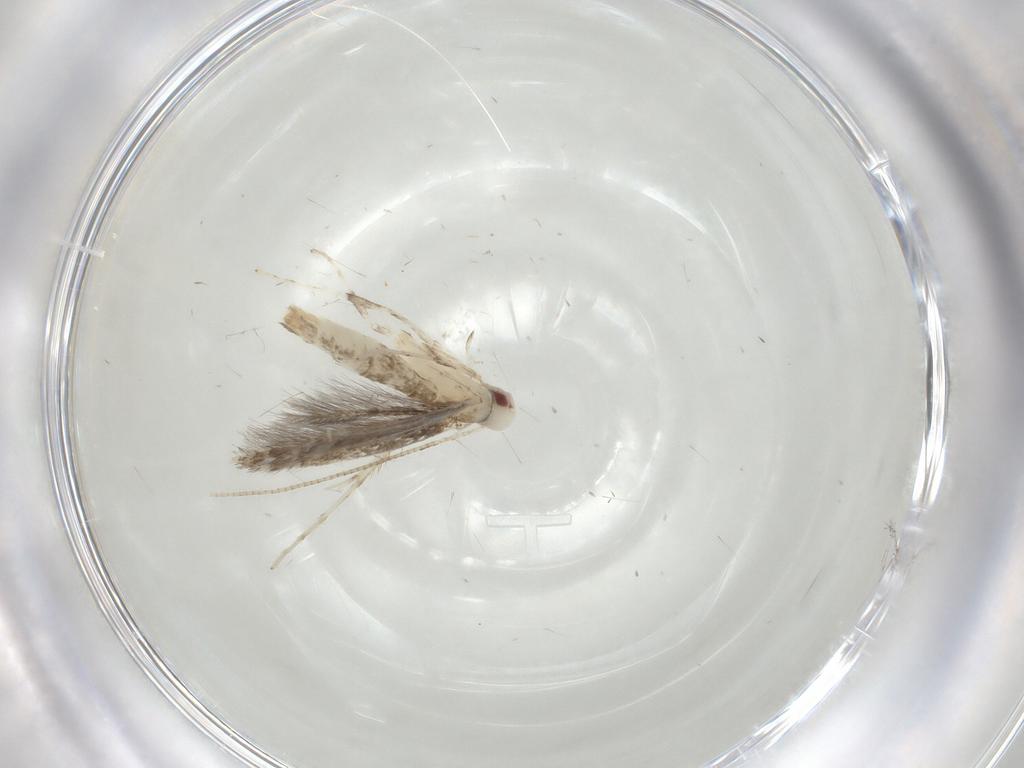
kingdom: Animalia
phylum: Arthropoda
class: Insecta
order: Lepidoptera
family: Gracillariidae
